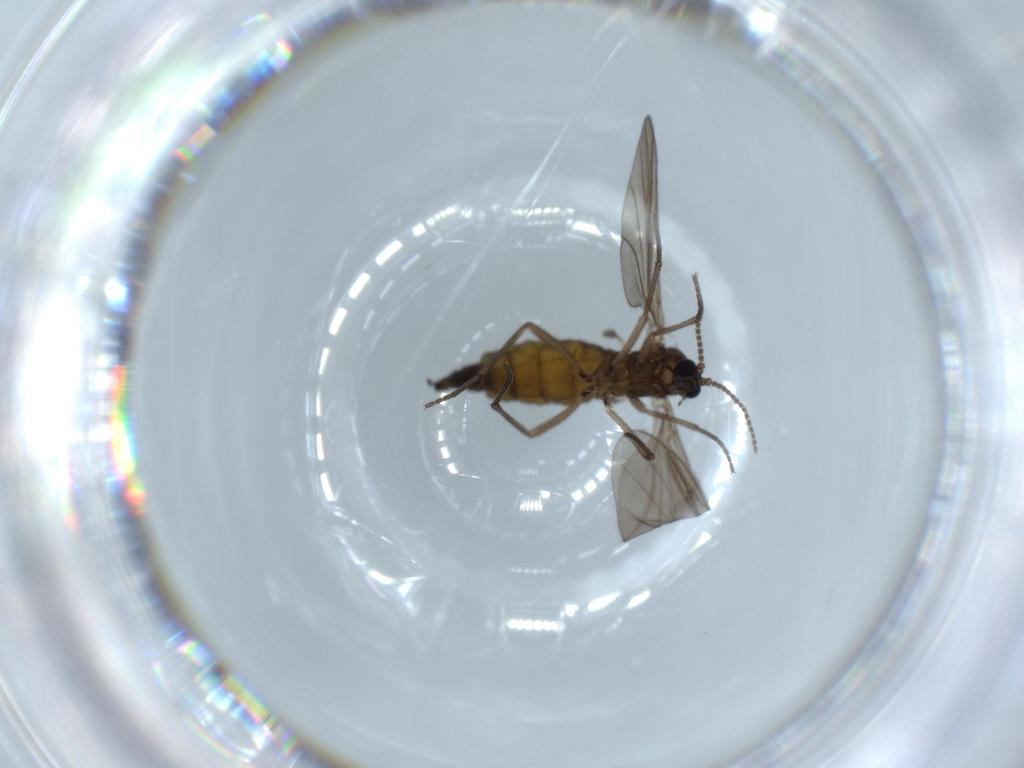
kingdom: Animalia
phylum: Arthropoda
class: Insecta
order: Diptera
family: Sciaridae
